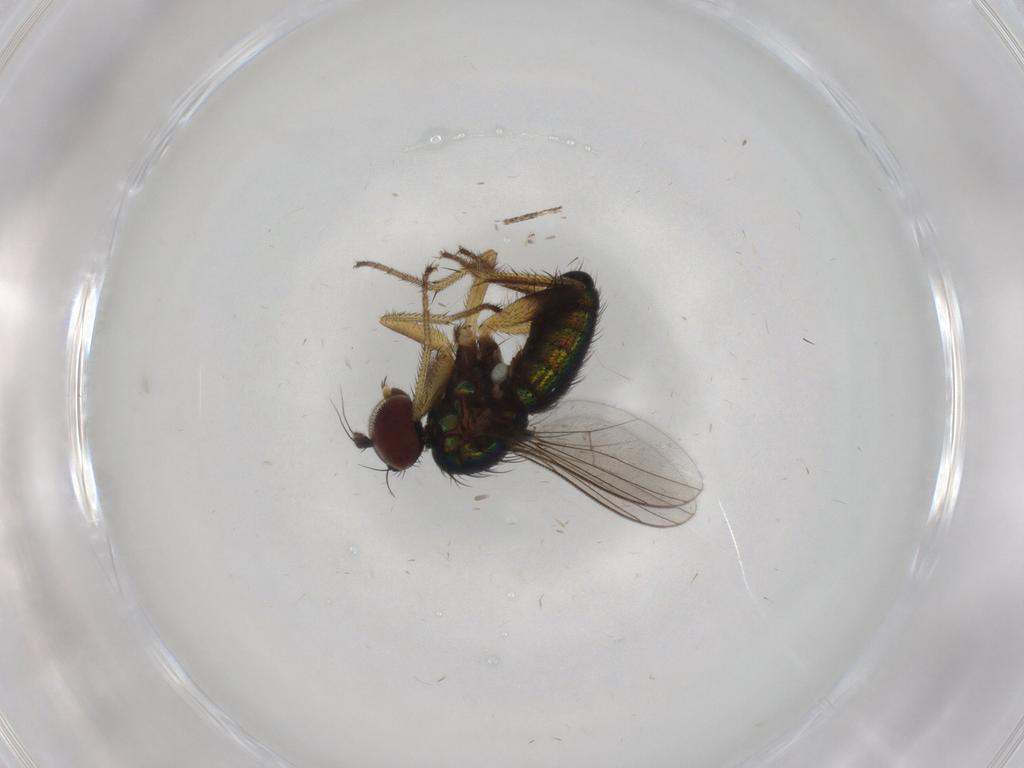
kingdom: Animalia
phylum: Arthropoda
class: Insecta
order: Diptera
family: Dolichopodidae
